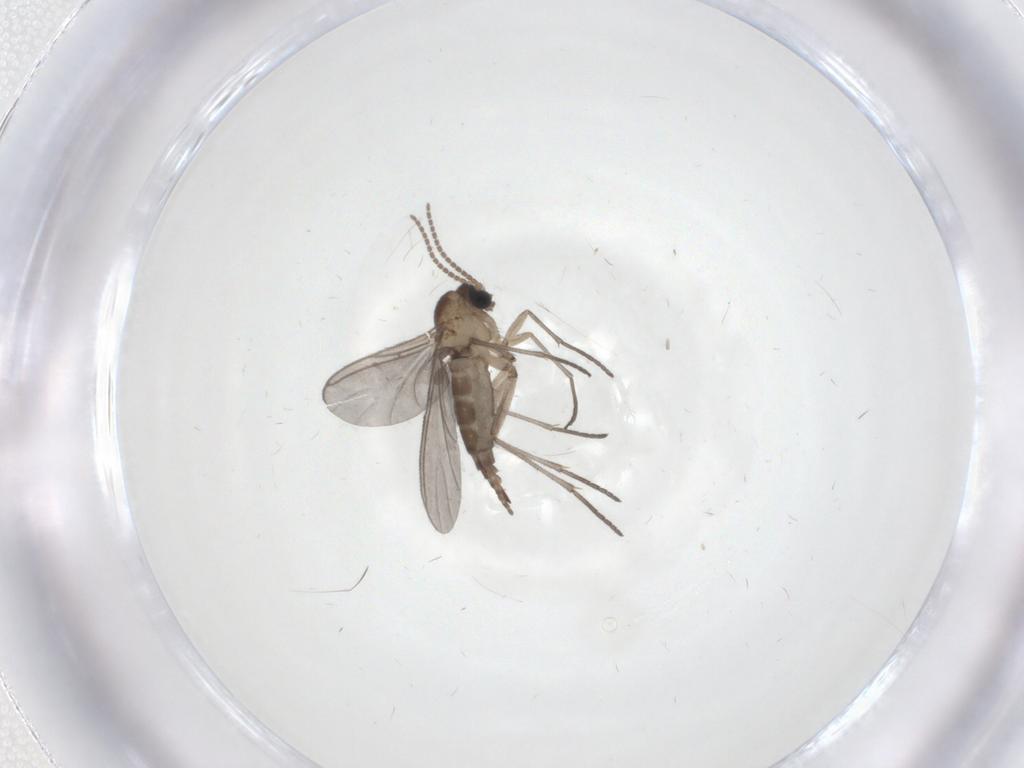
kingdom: Animalia
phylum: Arthropoda
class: Insecta
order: Diptera
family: Sciaridae
